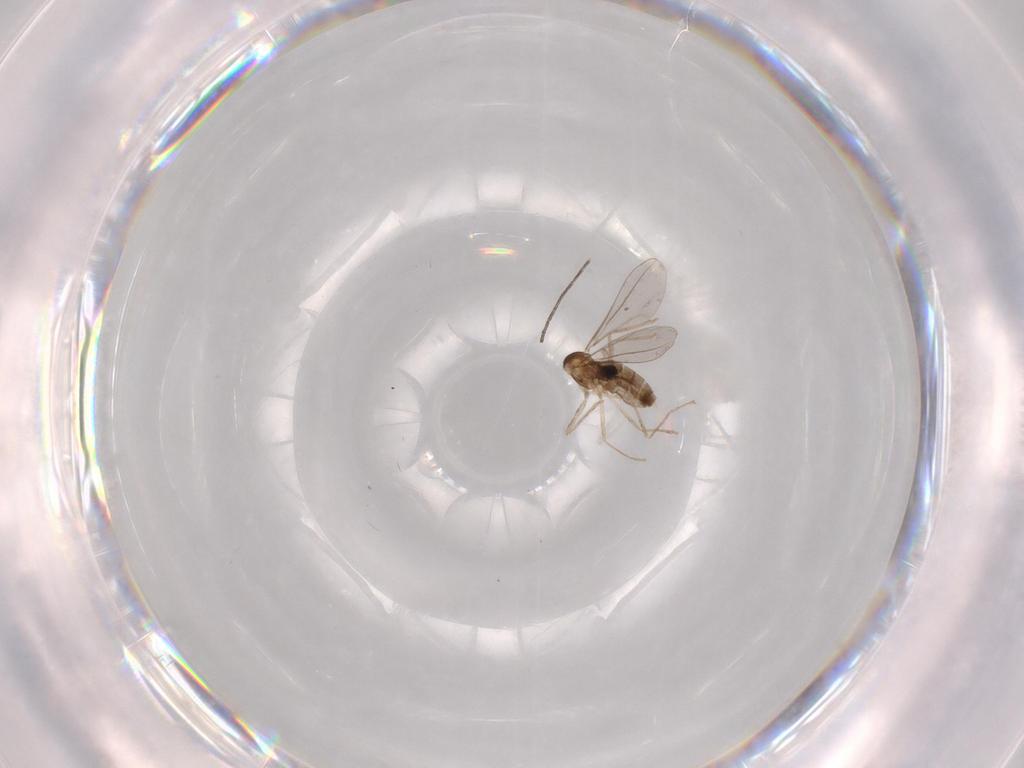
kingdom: Animalia
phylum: Arthropoda
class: Insecta
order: Diptera
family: Cecidomyiidae
